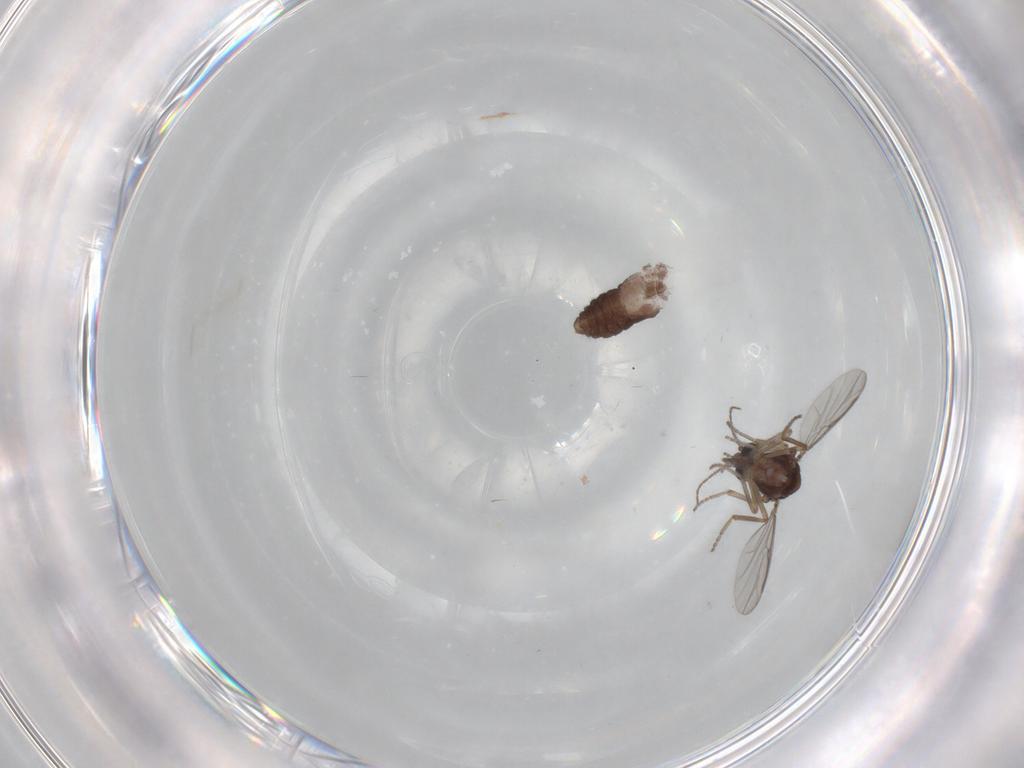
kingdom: Animalia
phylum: Arthropoda
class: Insecta
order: Diptera
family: Ceratopogonidae
